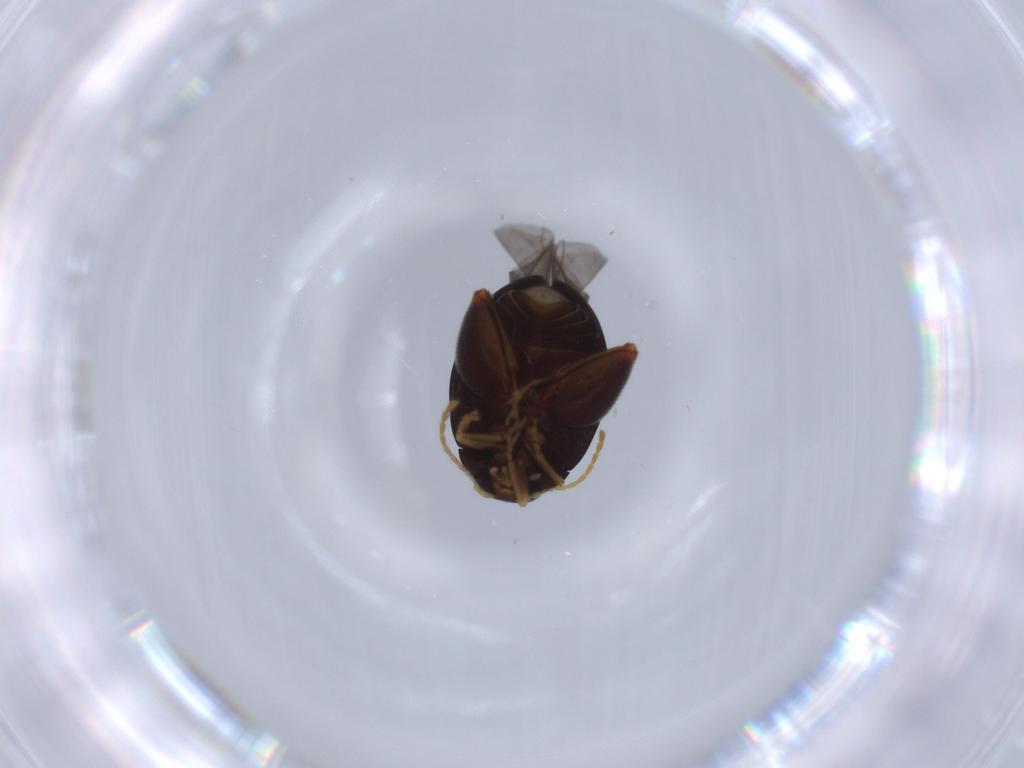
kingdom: Animalia
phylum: Arthropoda
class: Insecta
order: Coleoptera
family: Chrysomelidae
